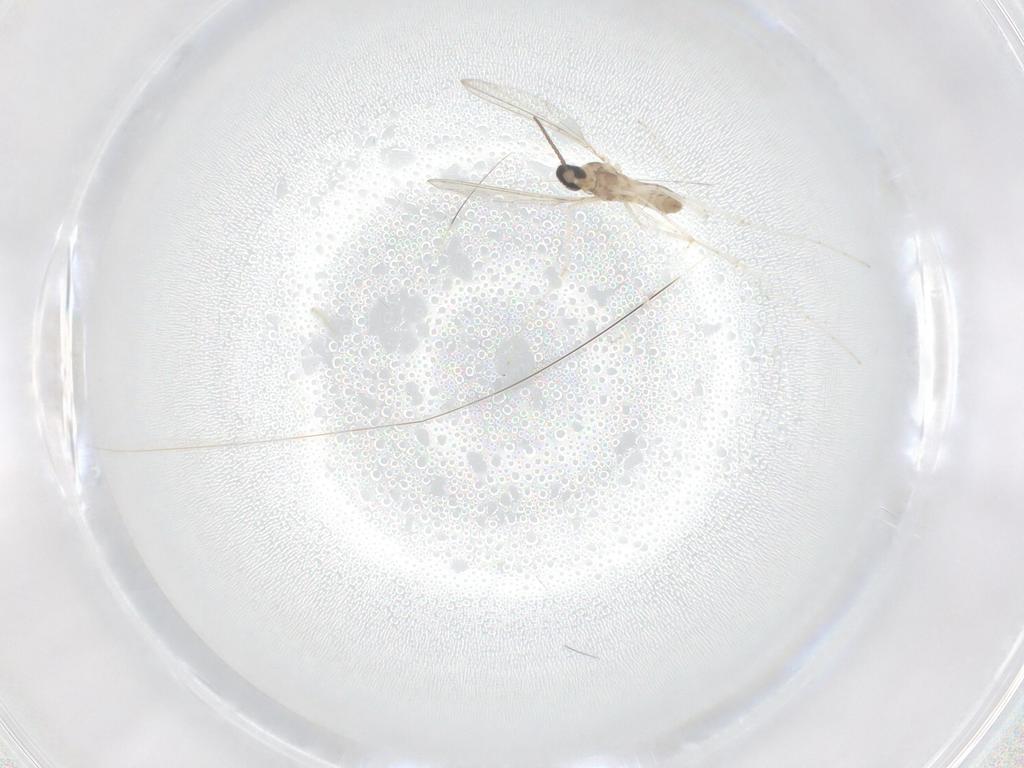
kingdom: Animalia
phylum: Arthropoda
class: Insecta
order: Diptera
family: Cecidomyiidae
